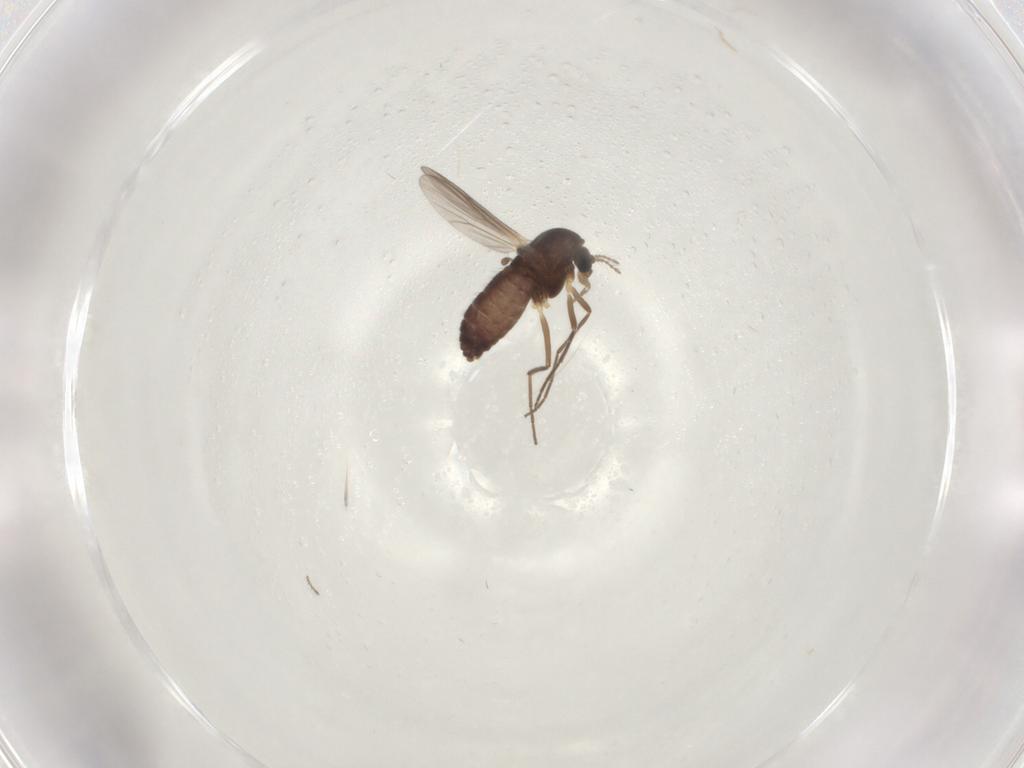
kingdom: Animalia
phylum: Arthropoda
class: Insecta
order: Diptera
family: Chironomidae
